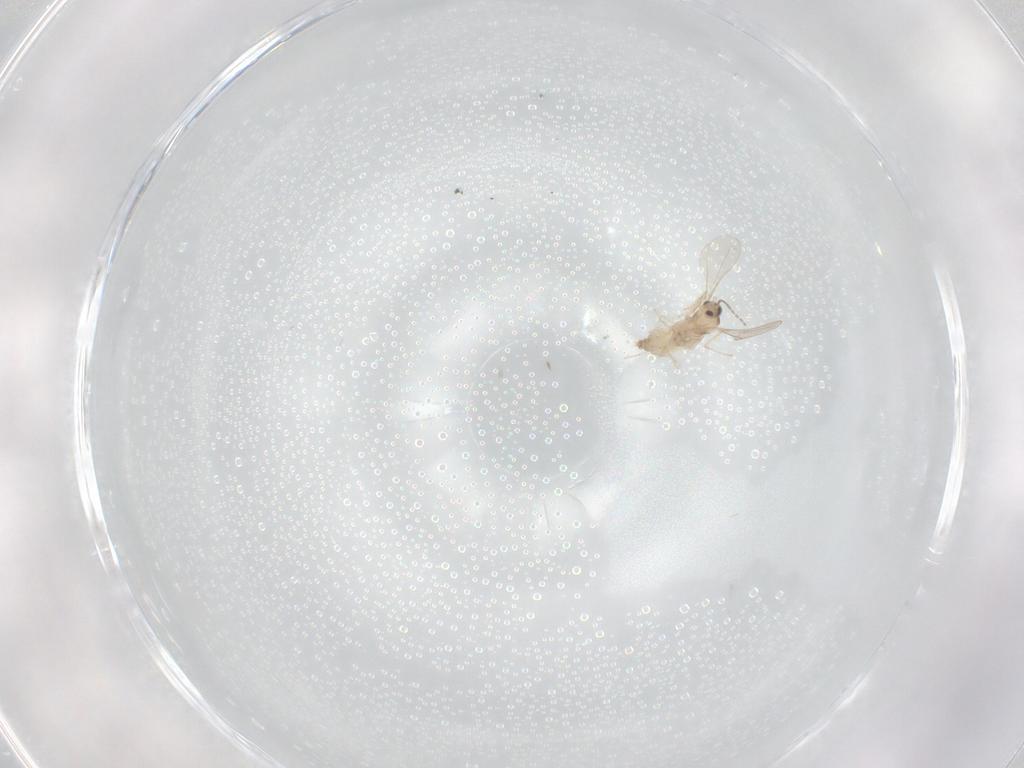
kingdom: Animalia
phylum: Arthropoda
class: Insecta
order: Diptera
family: Cecidomyiidae
